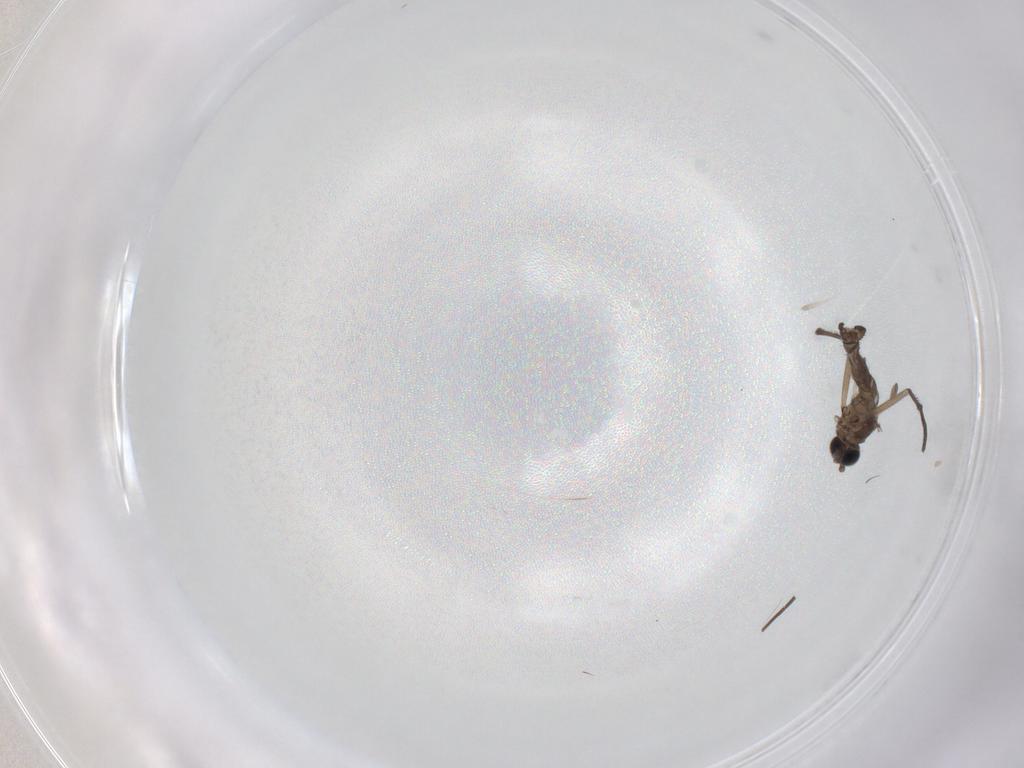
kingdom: Animalia
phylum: Arthropoda
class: Insecta
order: Diptera
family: Sciaridae
